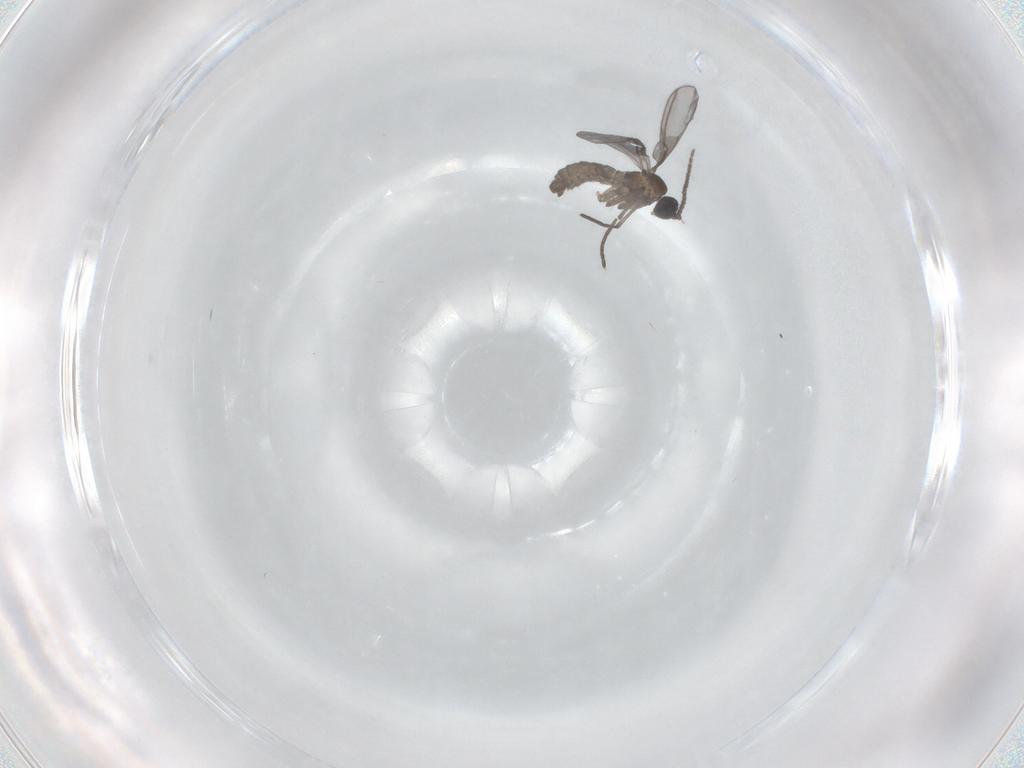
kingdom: Animalia
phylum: Arthropoda
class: Insecta
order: Diptera
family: Sciaridae
